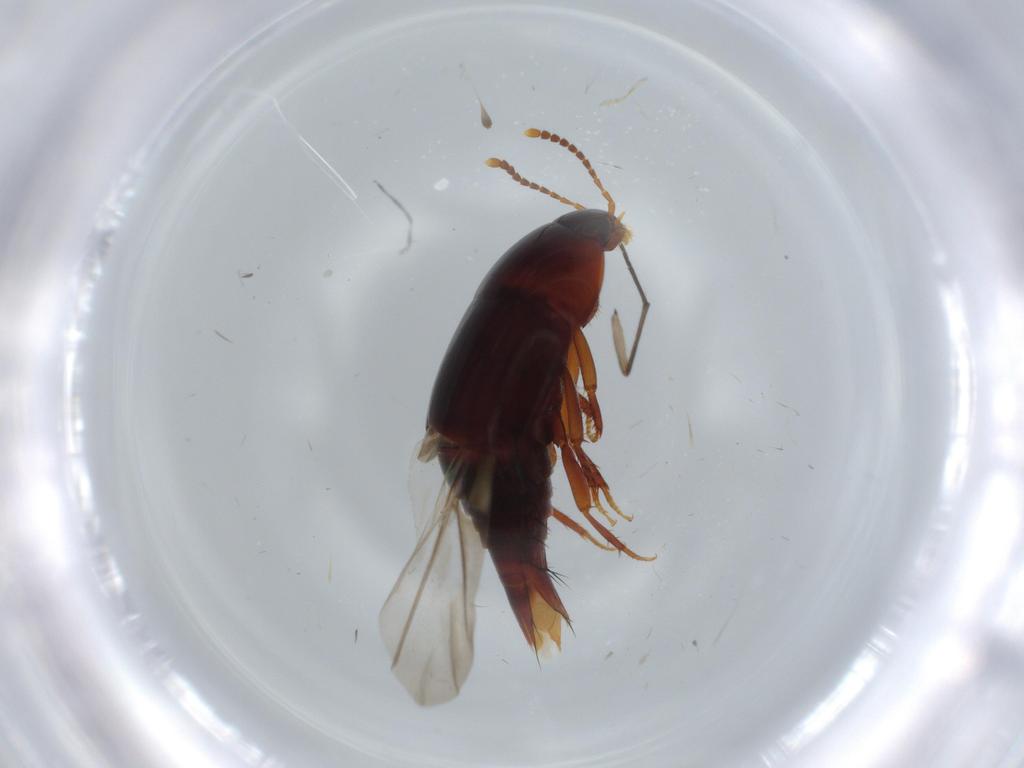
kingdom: Animalia
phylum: Arthropoda
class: Insecta
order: Coleoptera
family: Staphylinidae
